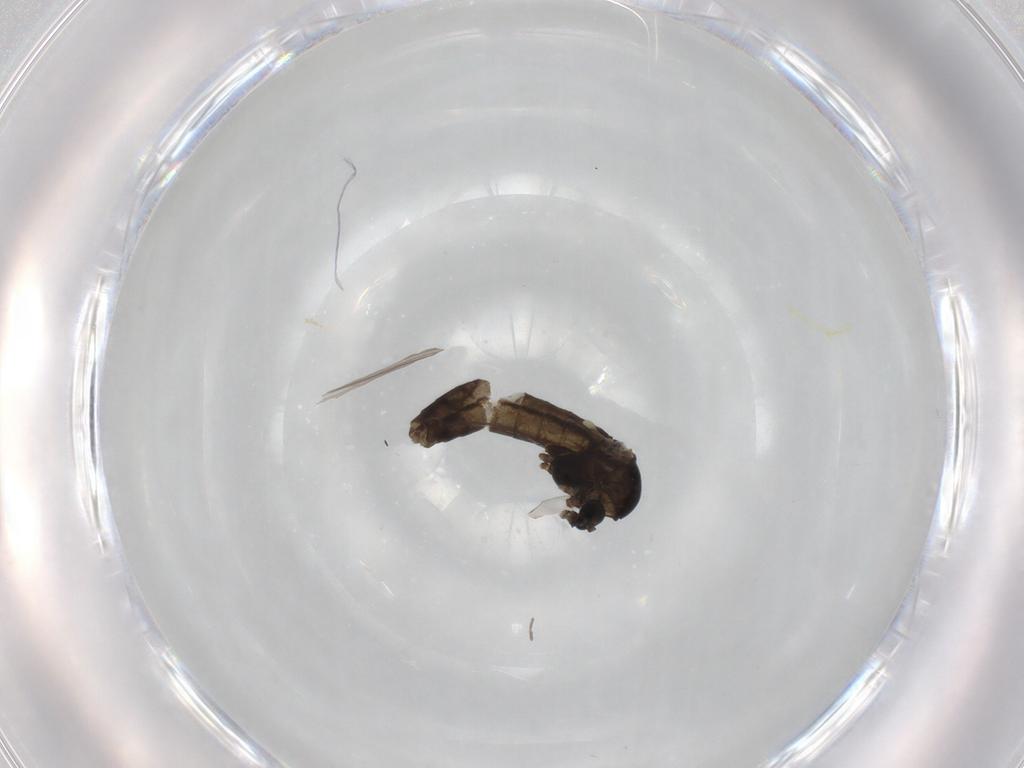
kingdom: Animalia
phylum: Arthropoda
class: Insecta
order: Diptera
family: Chironomidae
